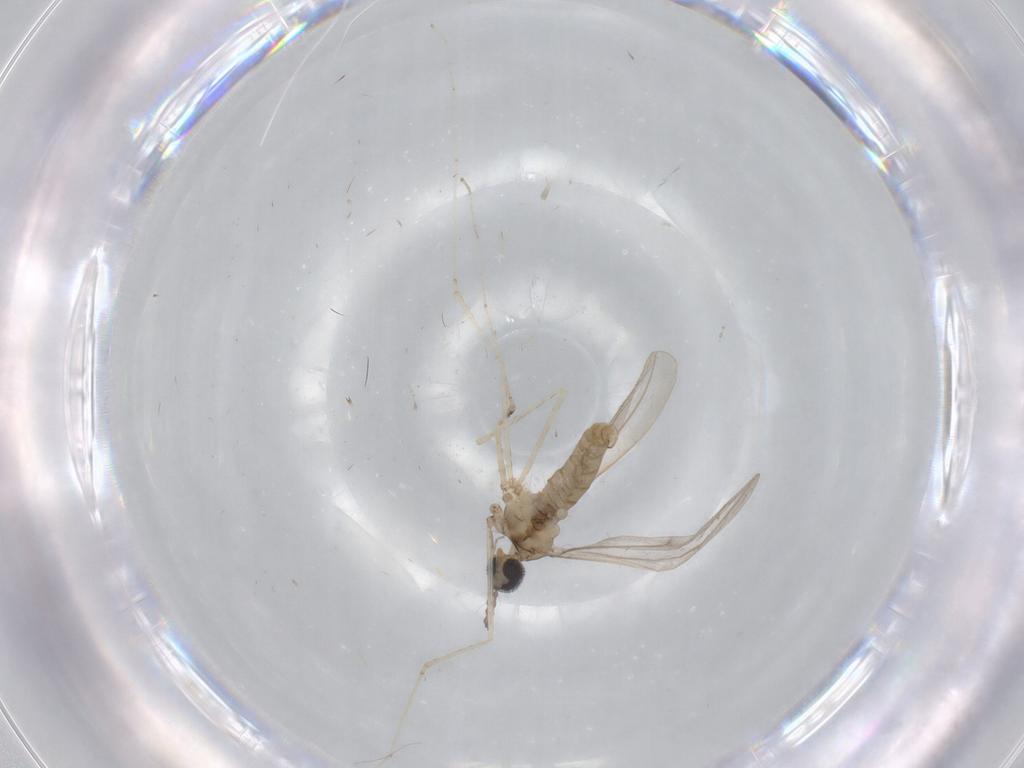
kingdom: Animalia
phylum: Arthropoda
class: Insecta
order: Diptera
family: Cecidomyiidae
